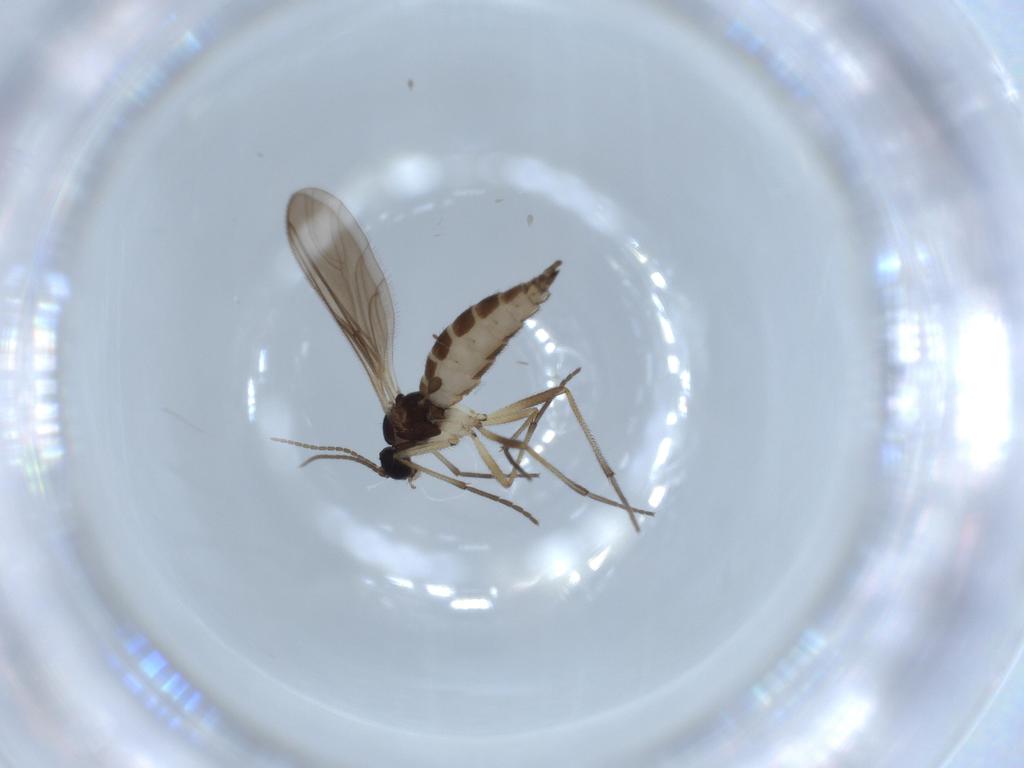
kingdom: Animalia
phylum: Arthropoda
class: Insecta
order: Diptera
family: Sciaridae
